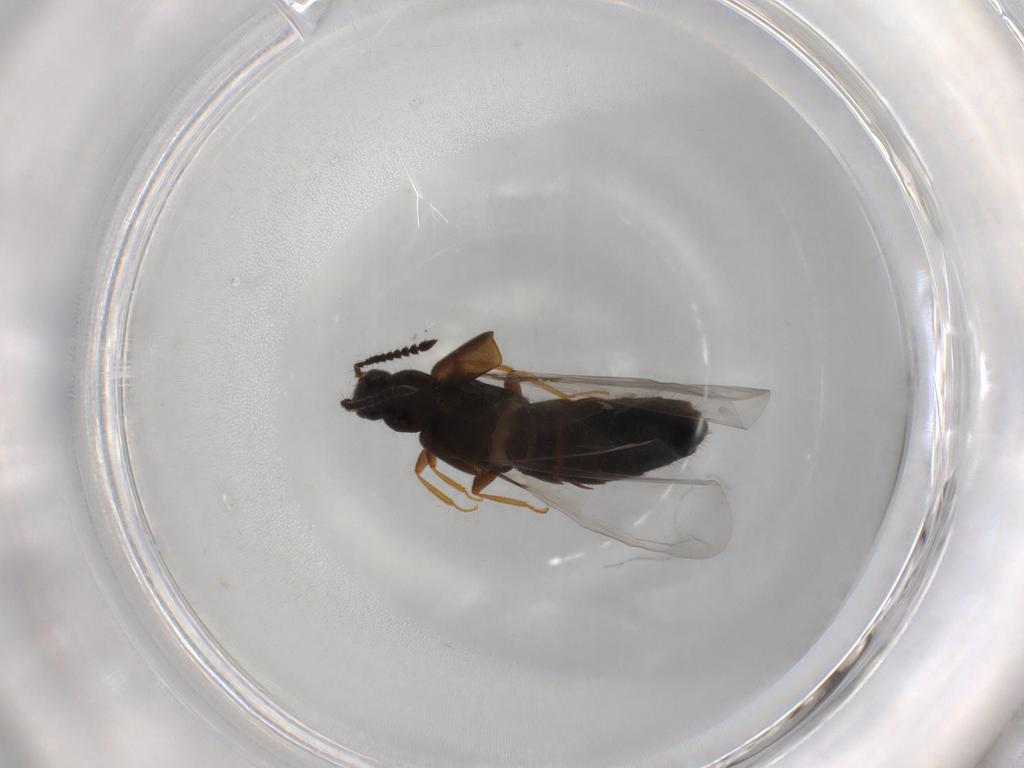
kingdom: Animalia
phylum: Arthropoda
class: Insecta
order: Coleoptera
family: Staphylinidae
